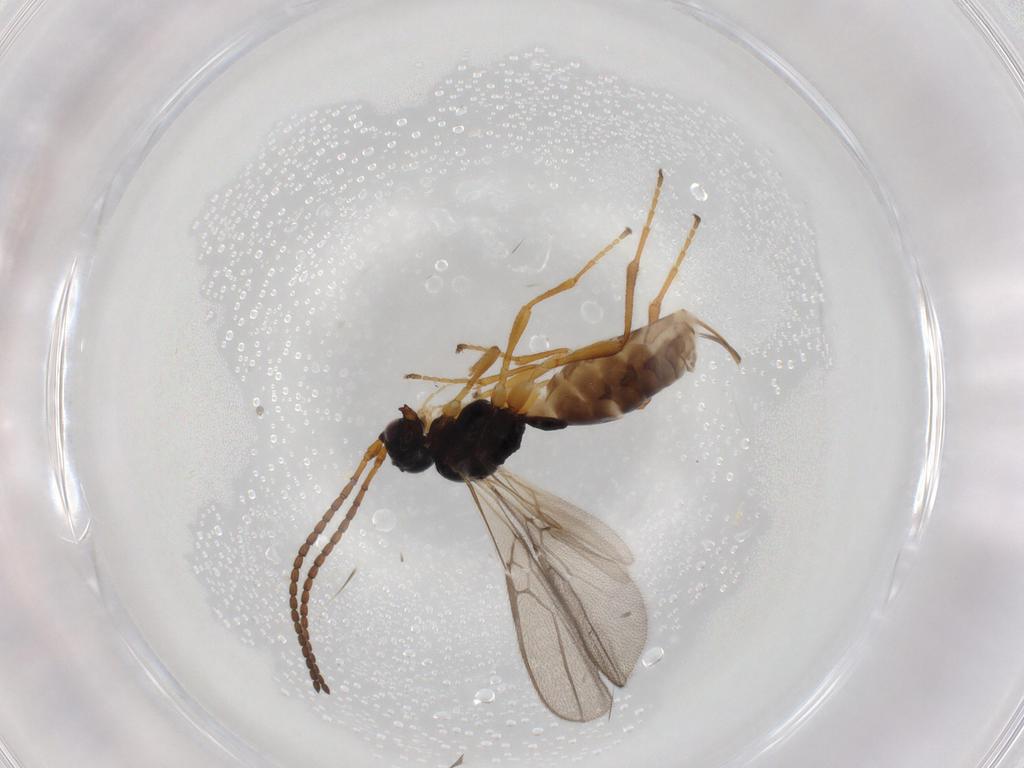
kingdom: Animalia
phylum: Arthropoda
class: Insecta
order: Hymenoptera
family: Braconidae
